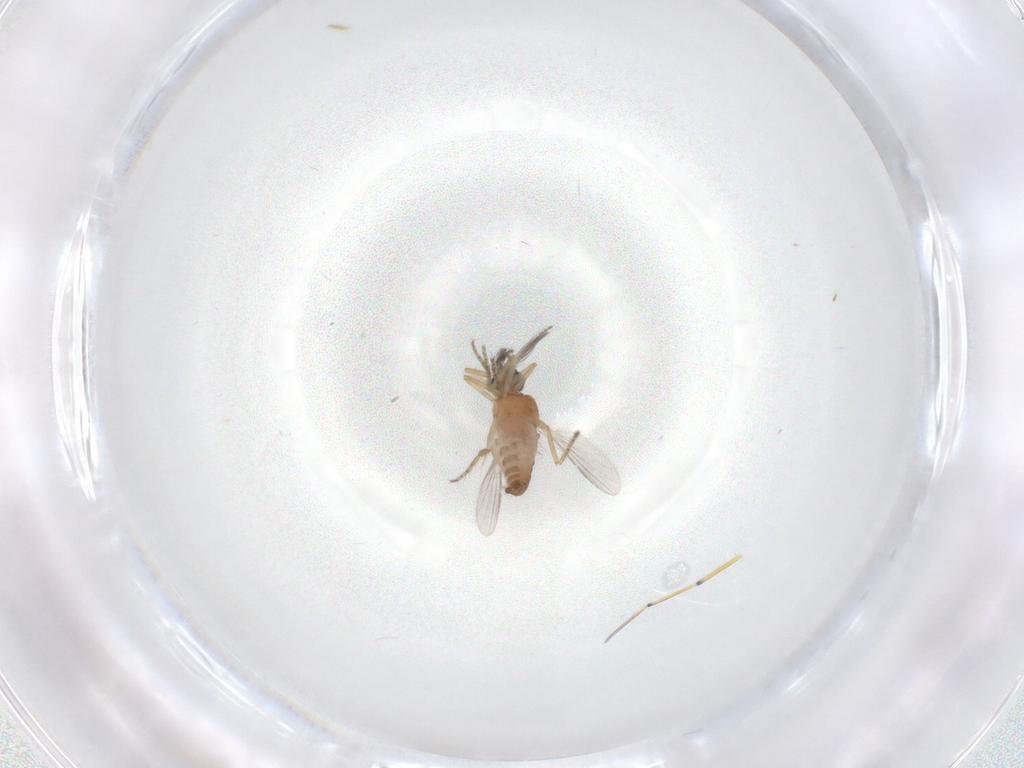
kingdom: Animalia
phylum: Arthropoda
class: Insecta
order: Diptera
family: Ceratopogonidae
